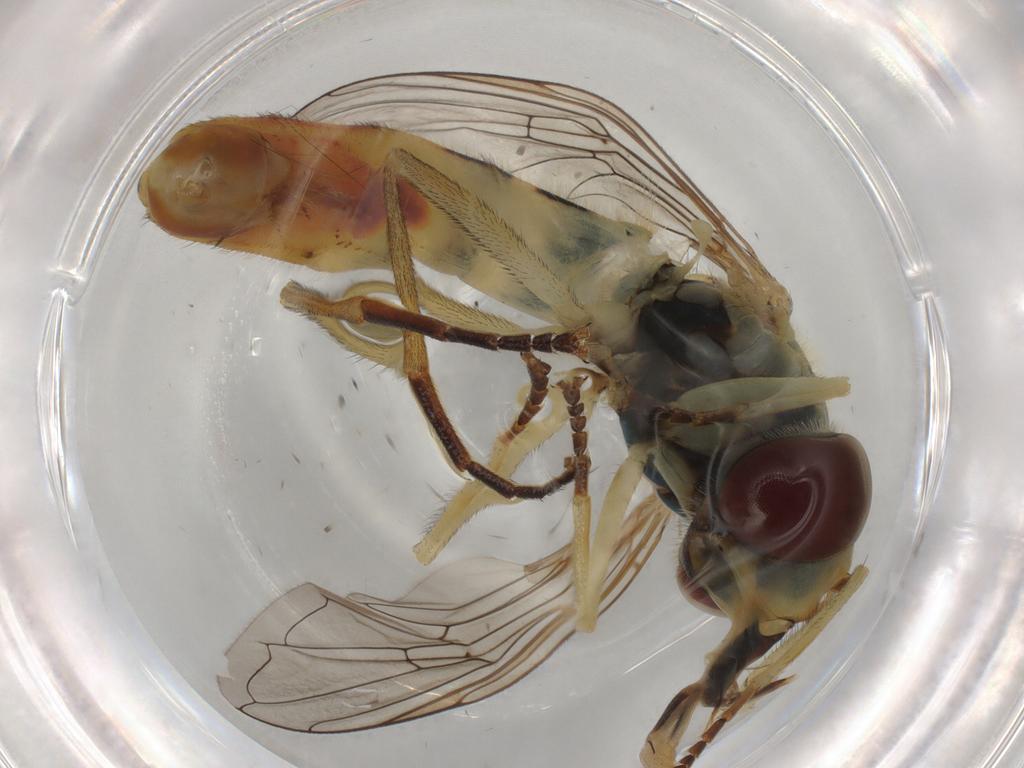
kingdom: Animalia
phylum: Arthropoda
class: Insecta
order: Diptera
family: Chironomidae
